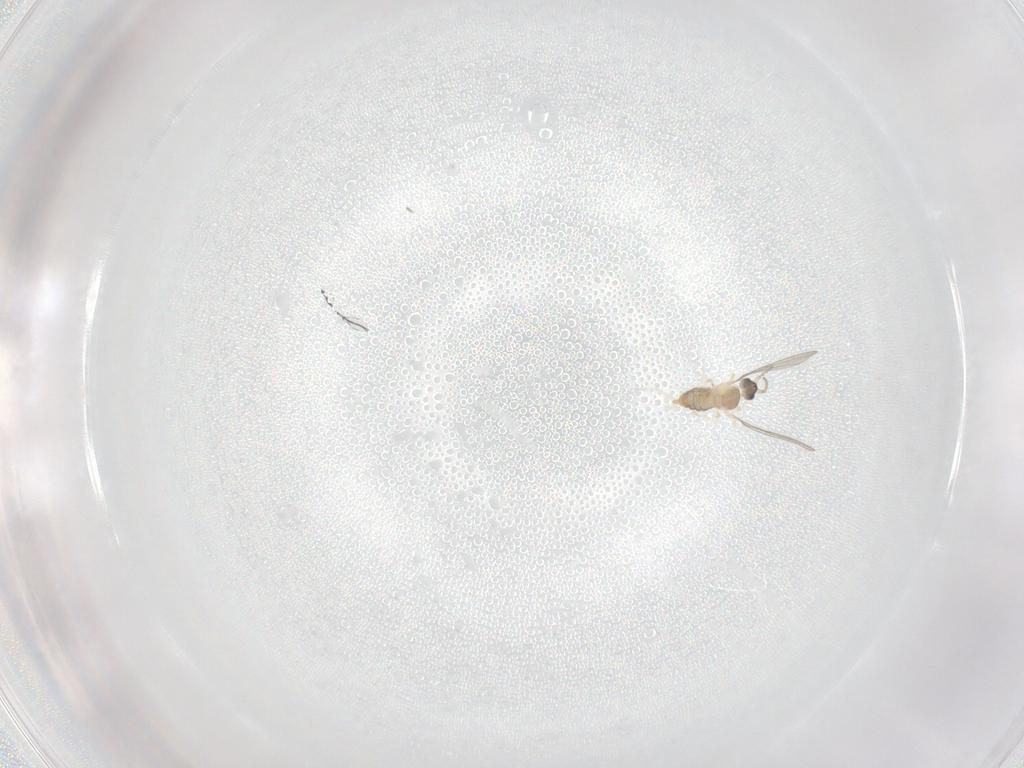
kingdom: Animalia
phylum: Arthropoda
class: Insecta
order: Diptera
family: Cecidomyiidae
